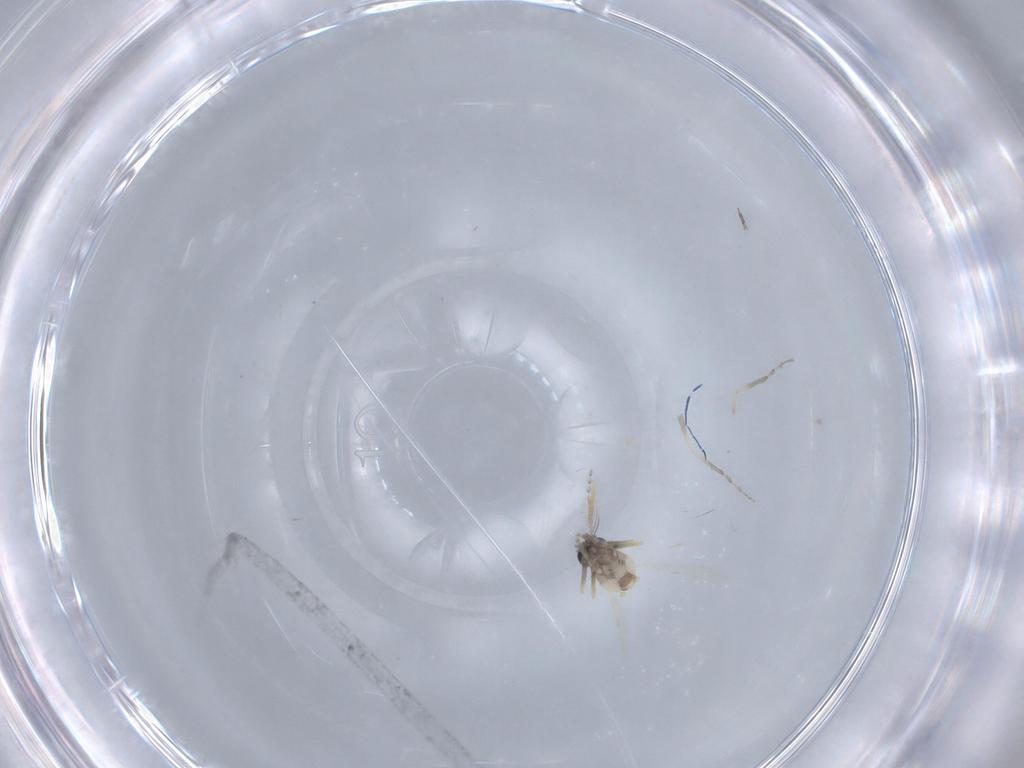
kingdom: Animalia
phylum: Arthropoda
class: Insecta
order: Diptera
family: Ceratopogonidae
